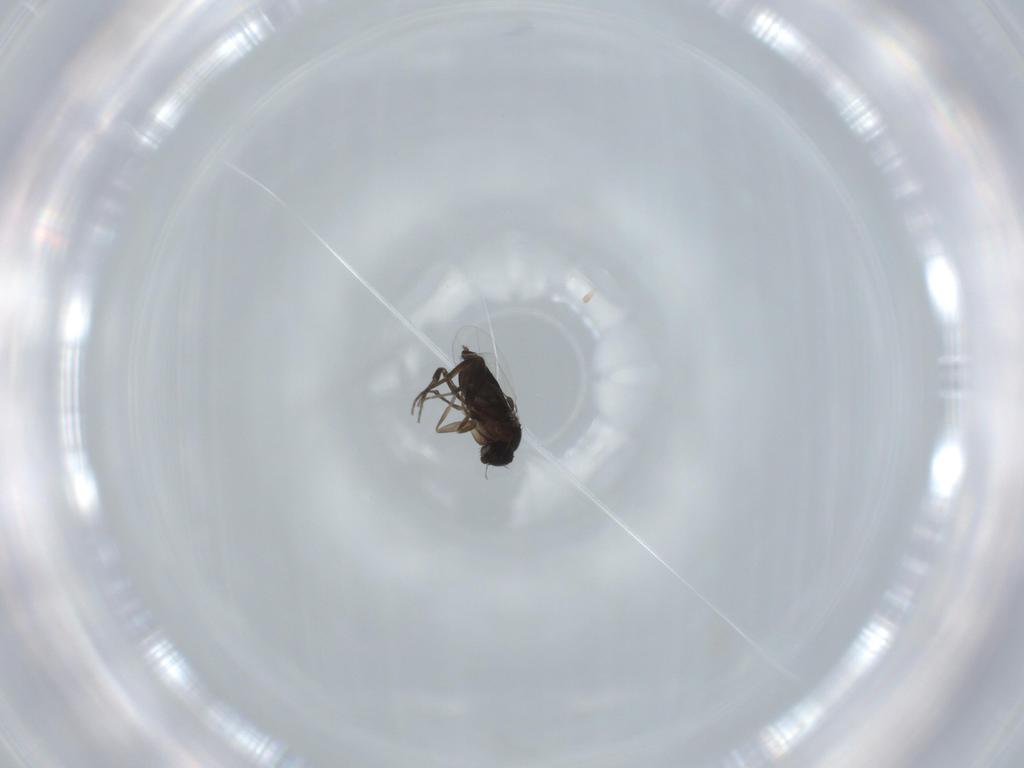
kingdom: Animalia
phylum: Arthropoda
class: Insecta
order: Diptera
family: Phoridae
